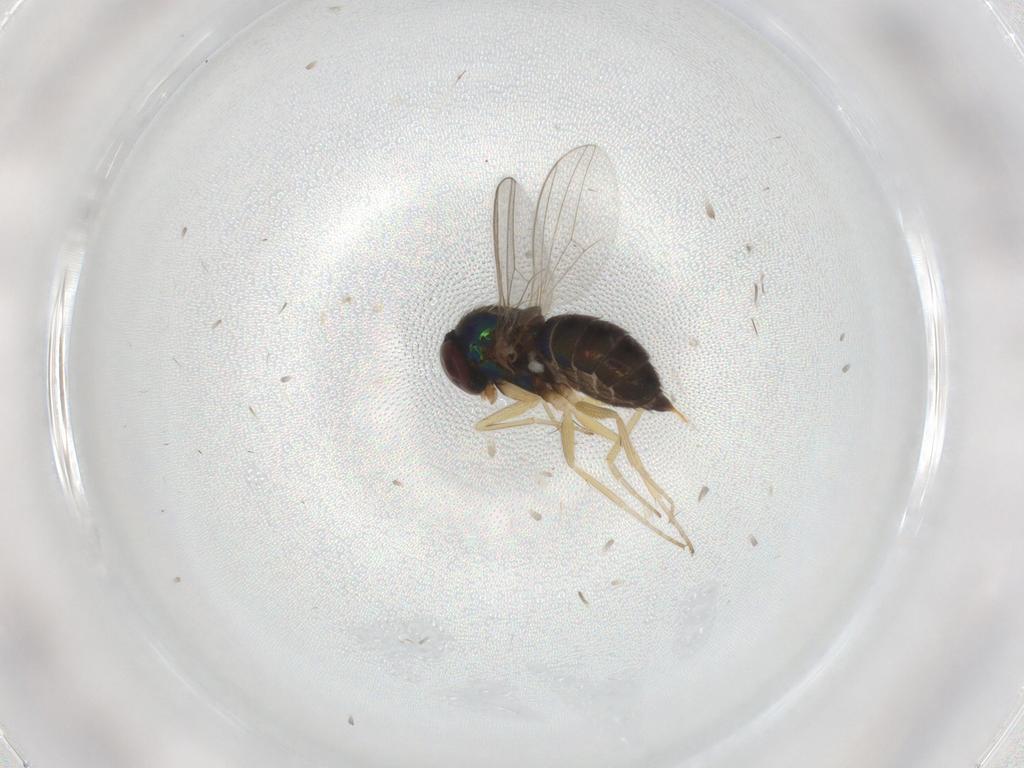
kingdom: Animalia
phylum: Arthropoda
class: Insecta
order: Diptera
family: Dolichopodidae
